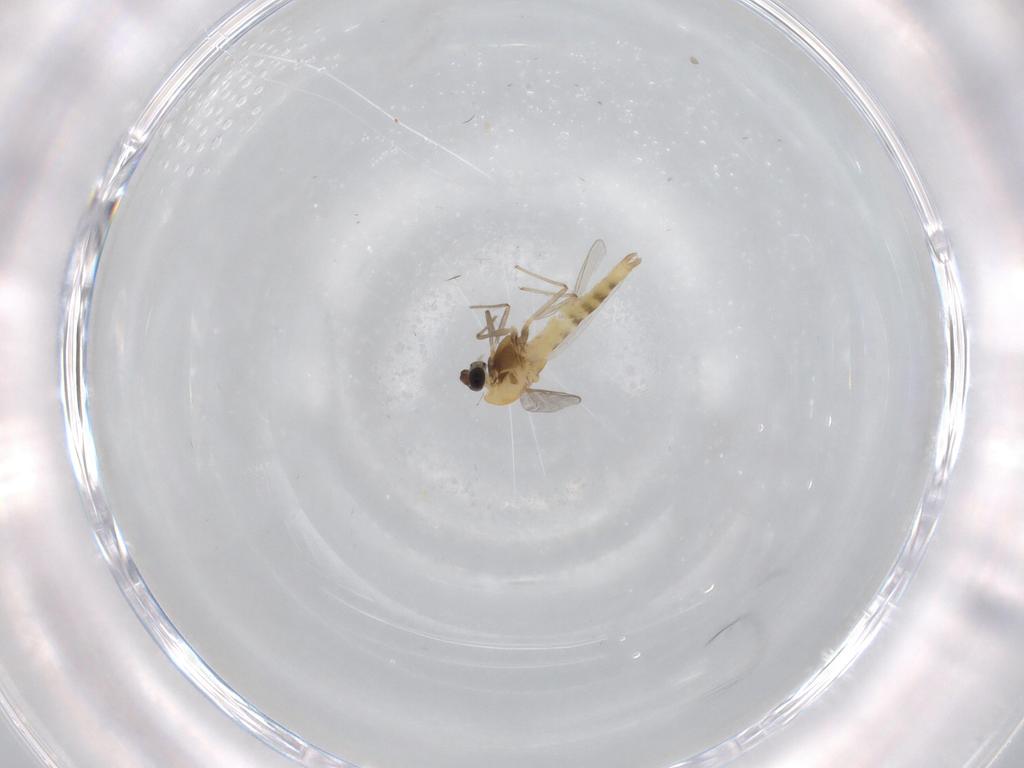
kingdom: Animalia
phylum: Arthropoda
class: Insecta
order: Diptera
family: Chironomidae
